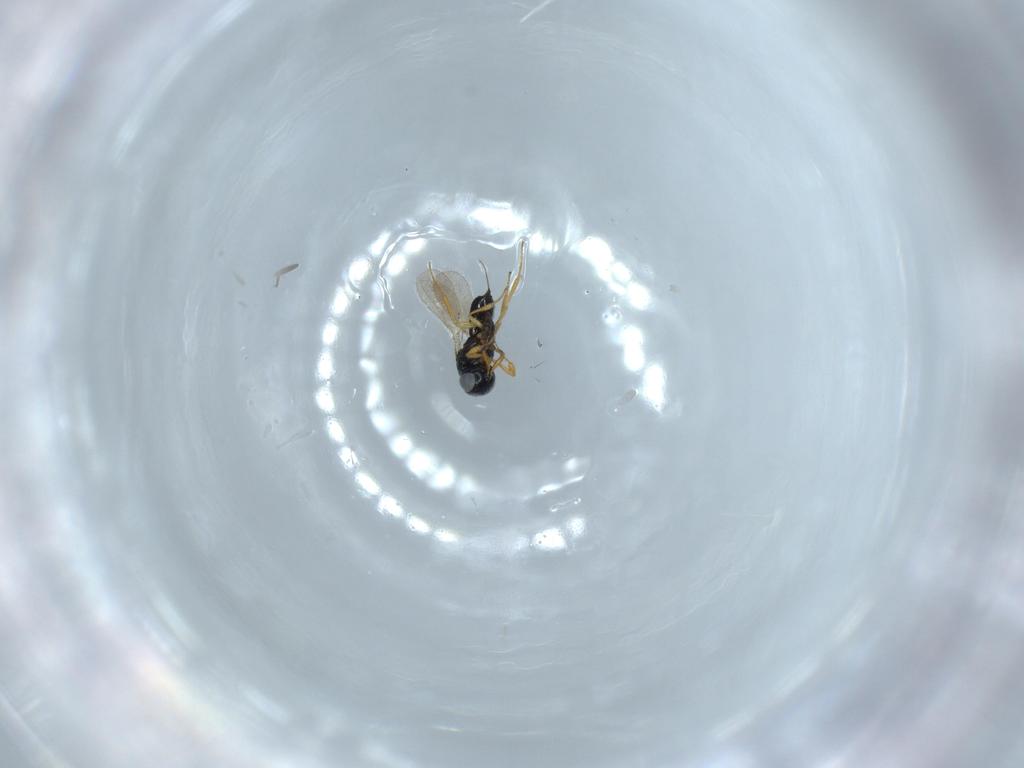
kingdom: Animalia
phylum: Arthropoda
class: Insecta
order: Hymenoptera
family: Scelionidae
